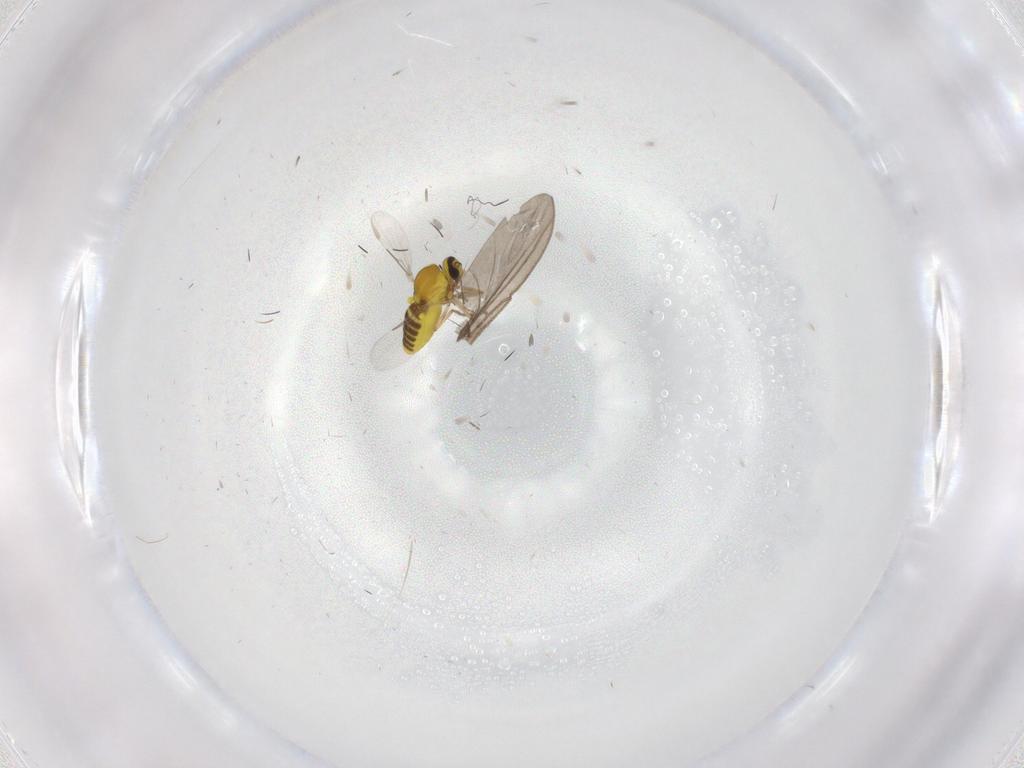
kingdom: Animalia
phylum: Arthropoda
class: Insecta
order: Diptera
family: Ceratopogonidae
